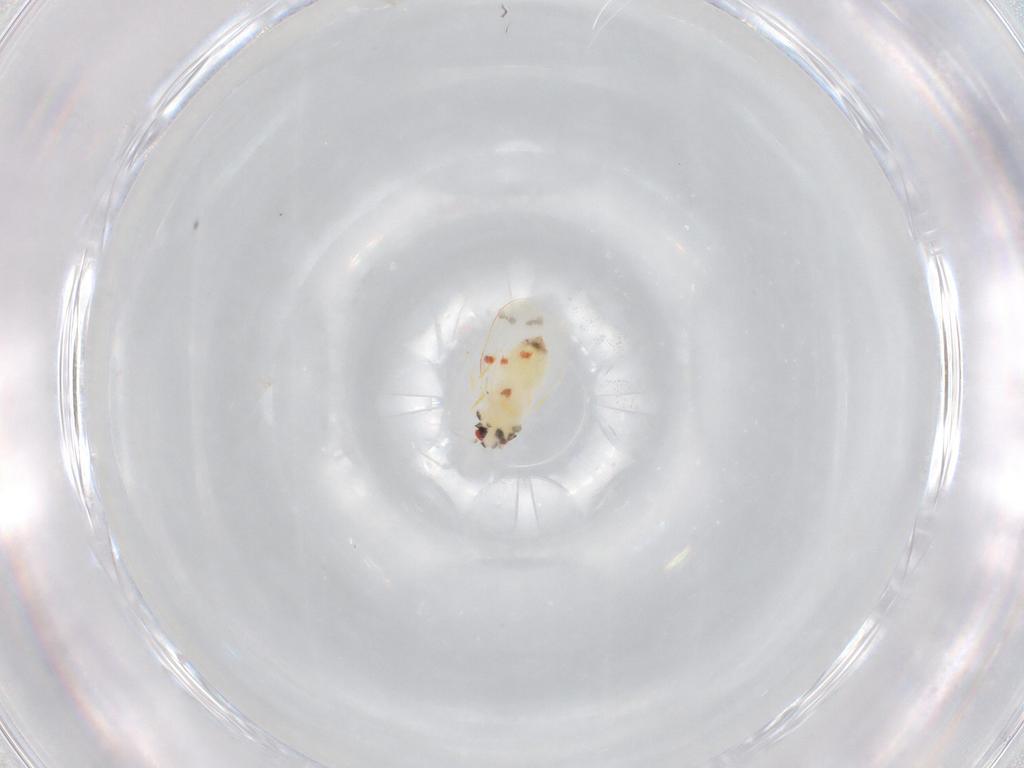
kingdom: Animalia
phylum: Arthropoda
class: Insecta
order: Hemiptera
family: Aleyrodidae
